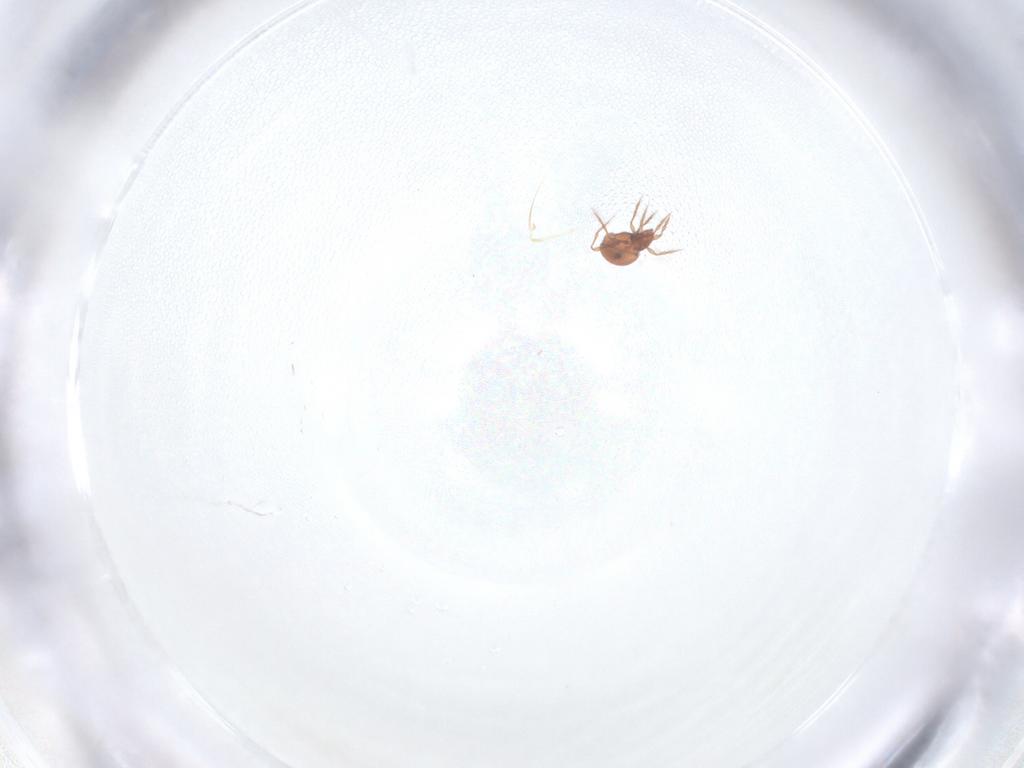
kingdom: Animalia
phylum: Arthropoda
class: Arachnida
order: Sarcoptiformes
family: Oppiidae
